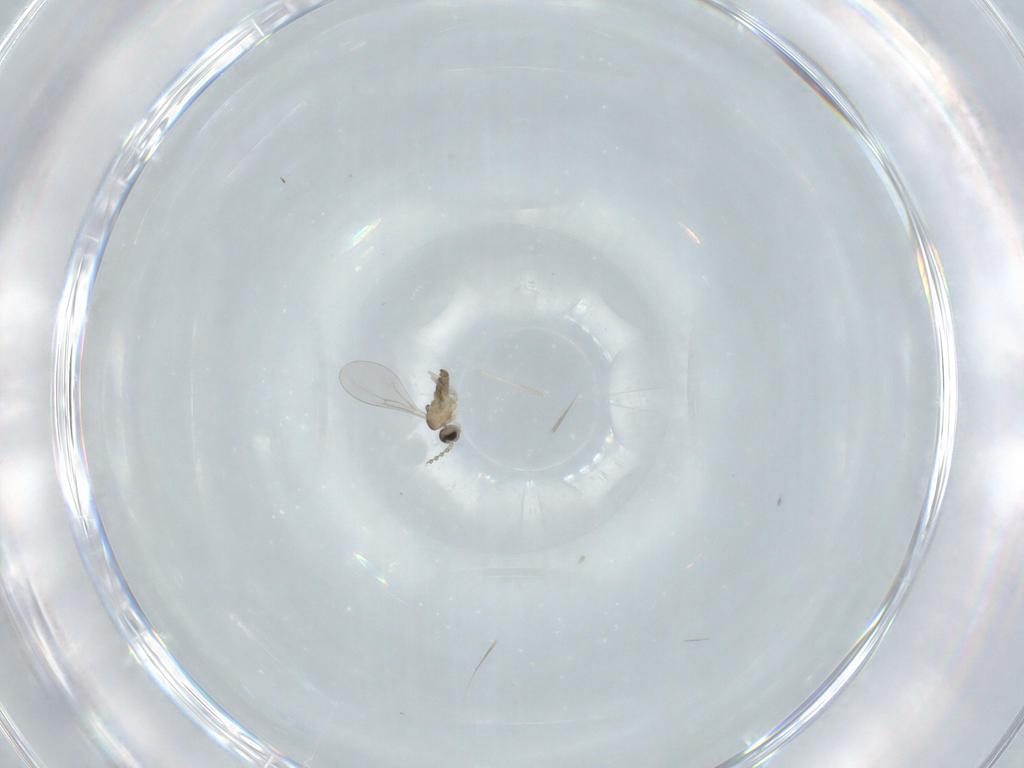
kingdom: Animalia
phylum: Arthropoda
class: Insecta
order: Diptera
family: Cecidomyiidae
